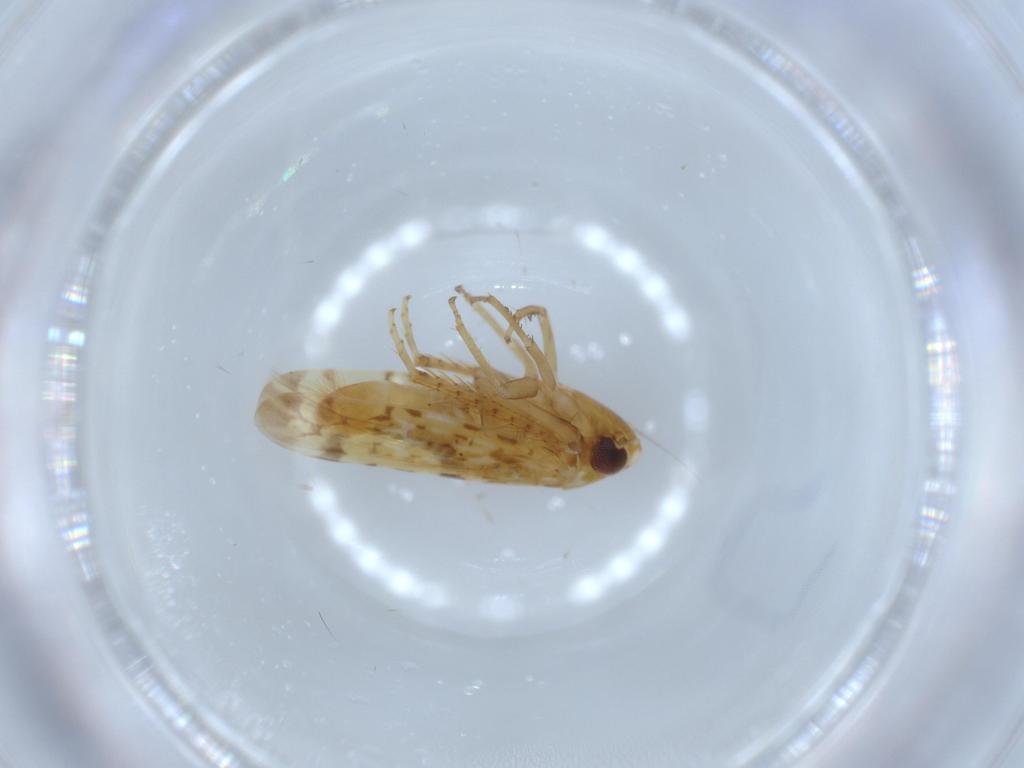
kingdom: Animalia
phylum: Arthropoda
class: Insecta
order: Hemiptera
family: Cicadellidae
